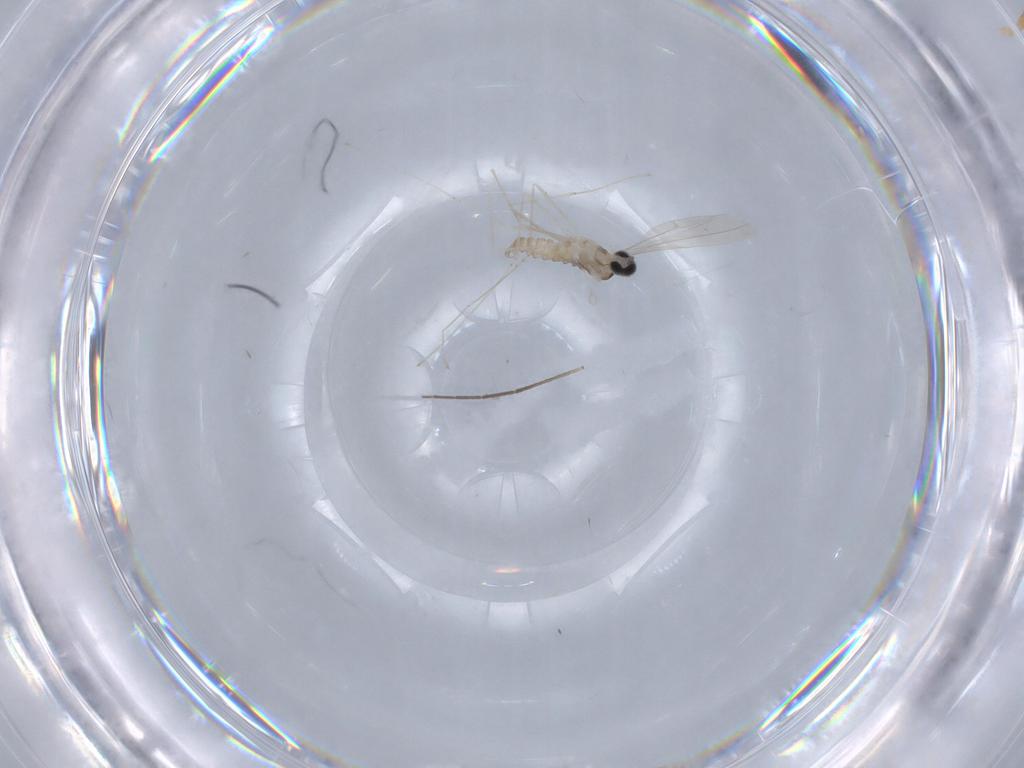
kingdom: Animalia
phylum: Arthropoda
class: Insecta
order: Diptera
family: Cecidomyiidae
